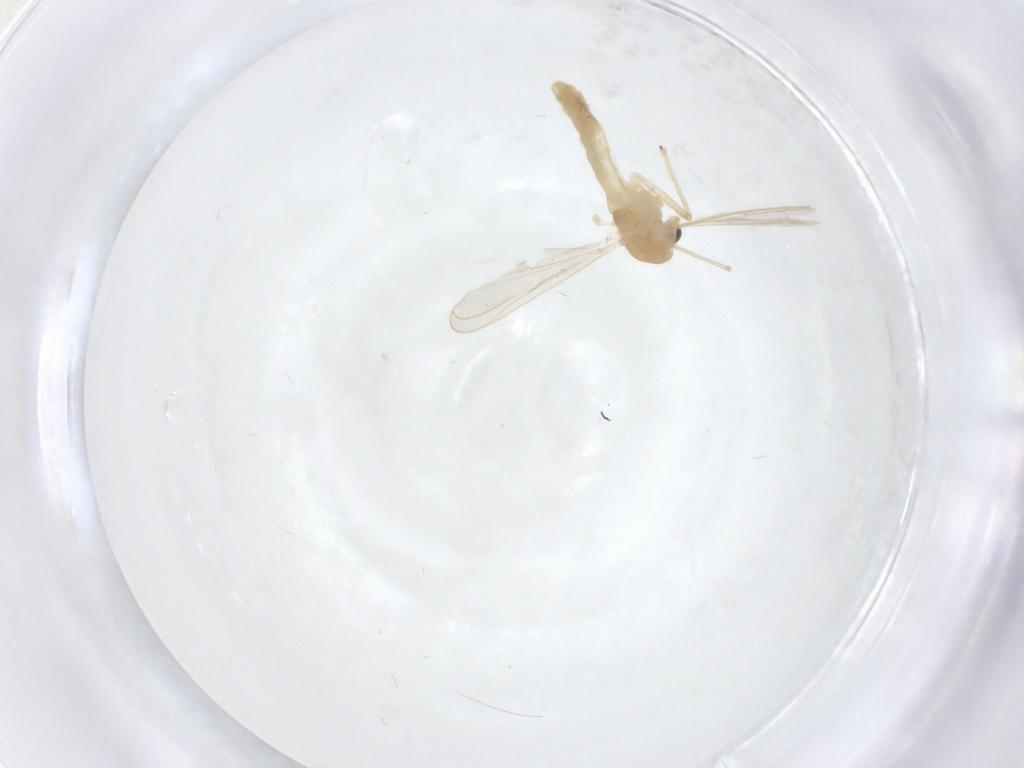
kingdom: Animalia
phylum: Arthropoda
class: Insecta
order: Diptera
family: Chironomidae
